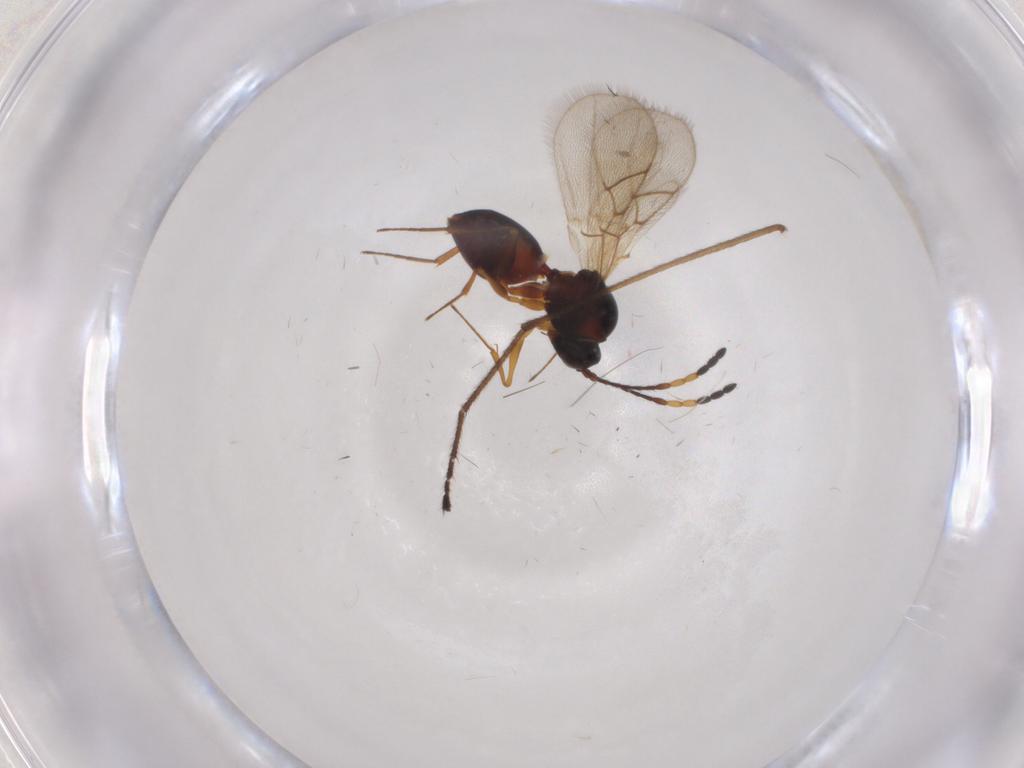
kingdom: Animalia
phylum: Arthropoda
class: Insecta
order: Hymenoptera
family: Figitidae
